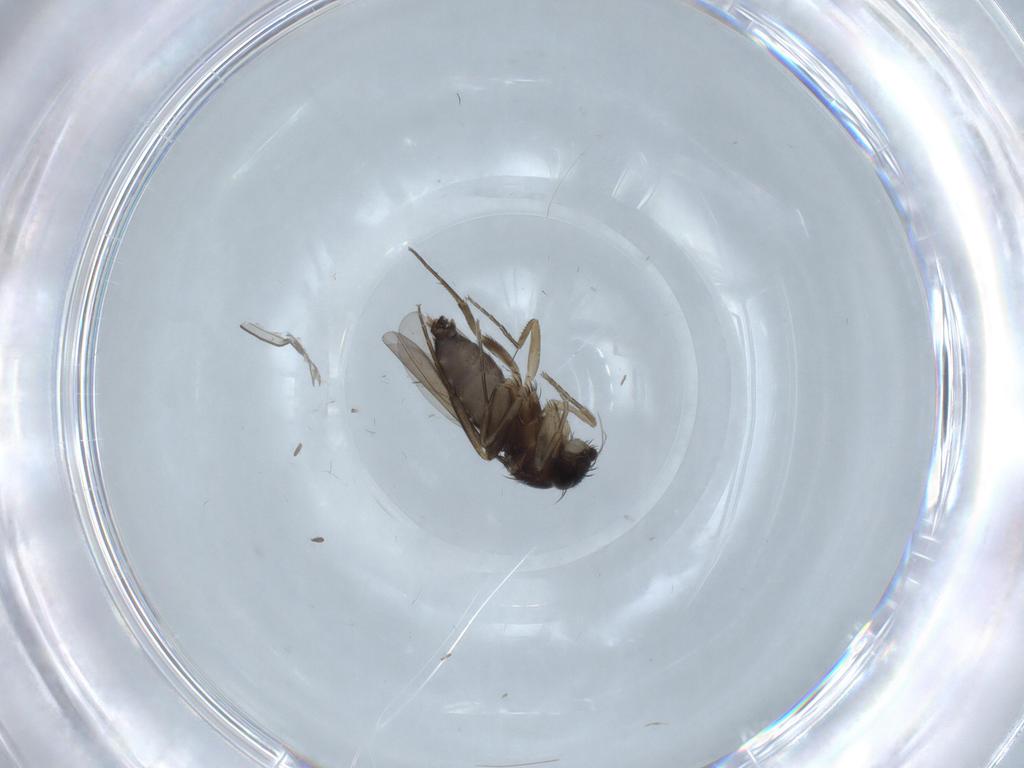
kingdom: Animalia
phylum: Arthropoda
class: Insecta
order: Diptera
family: Phoridae
